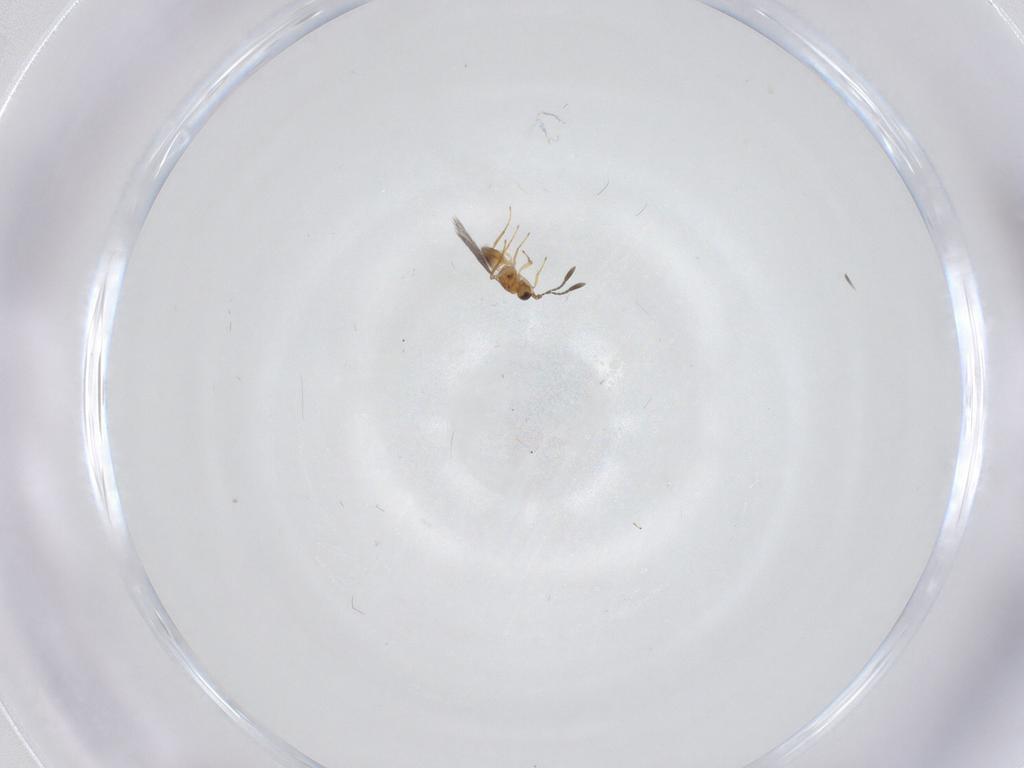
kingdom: Animalia
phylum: Arthropoda
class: Insecta
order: Hymenoptera
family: Mymaridae
